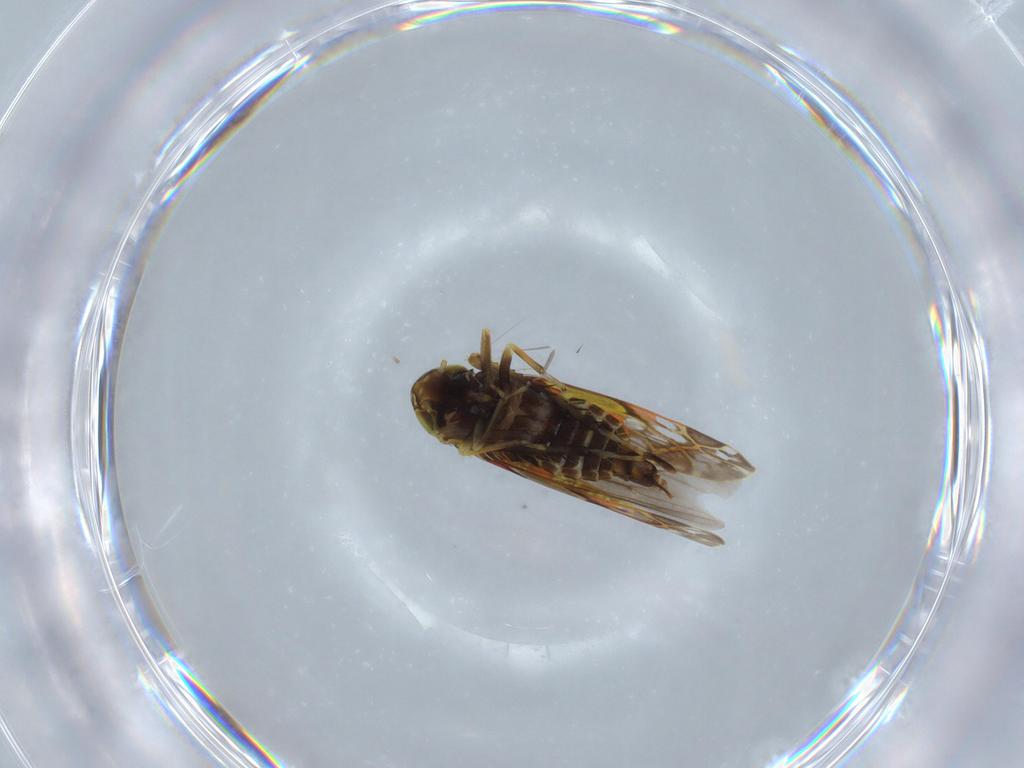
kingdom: Animalia
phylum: Arthropoda
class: Insecta
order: Hemiptera
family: Cicadellidae
